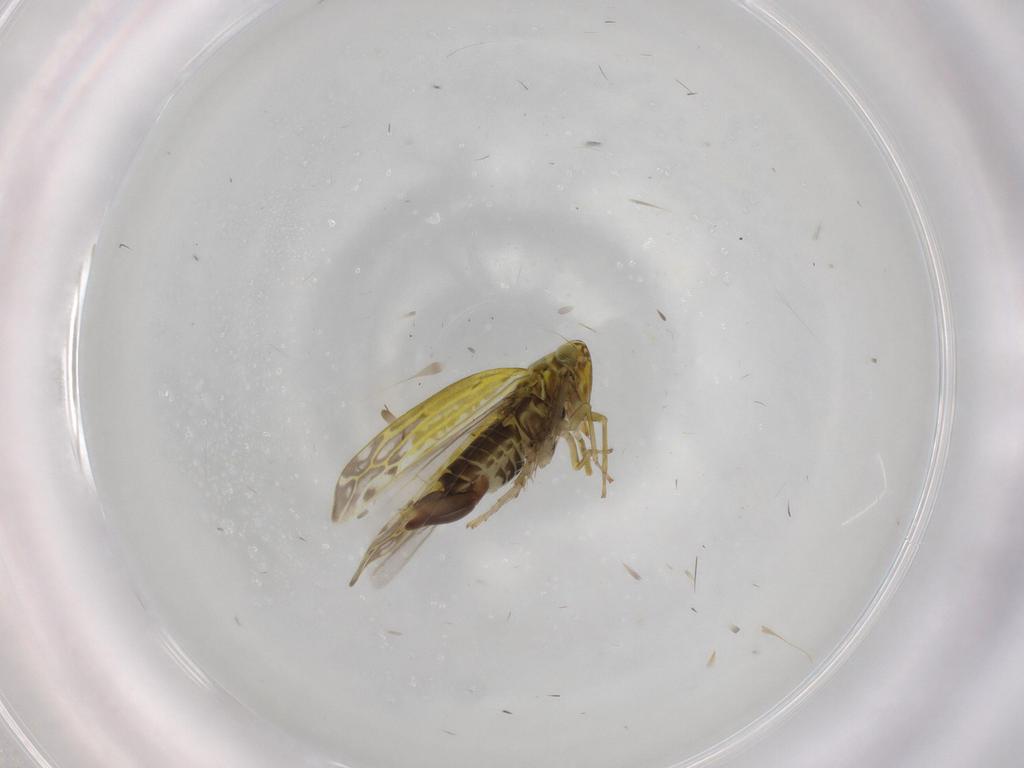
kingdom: Animalia
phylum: Arthropoda
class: Insecta
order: Hemiptera
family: Cicadellidae
